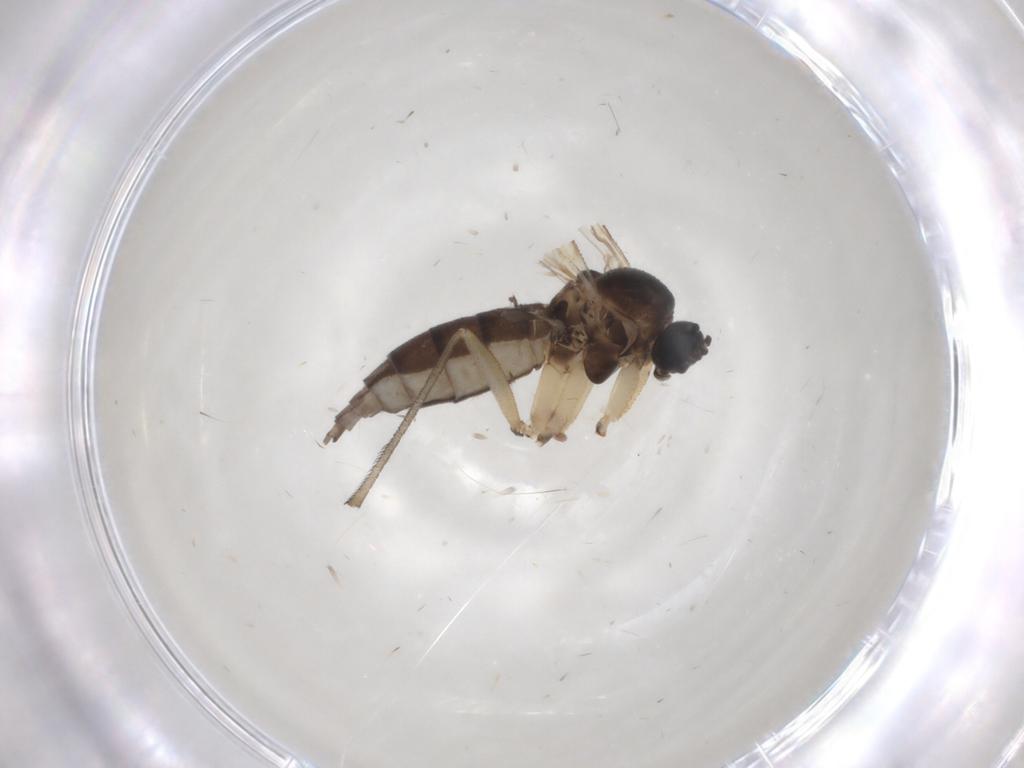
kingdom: Animalia
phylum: Arthropoda
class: Insecta
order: Diptera
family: Sciaridae
